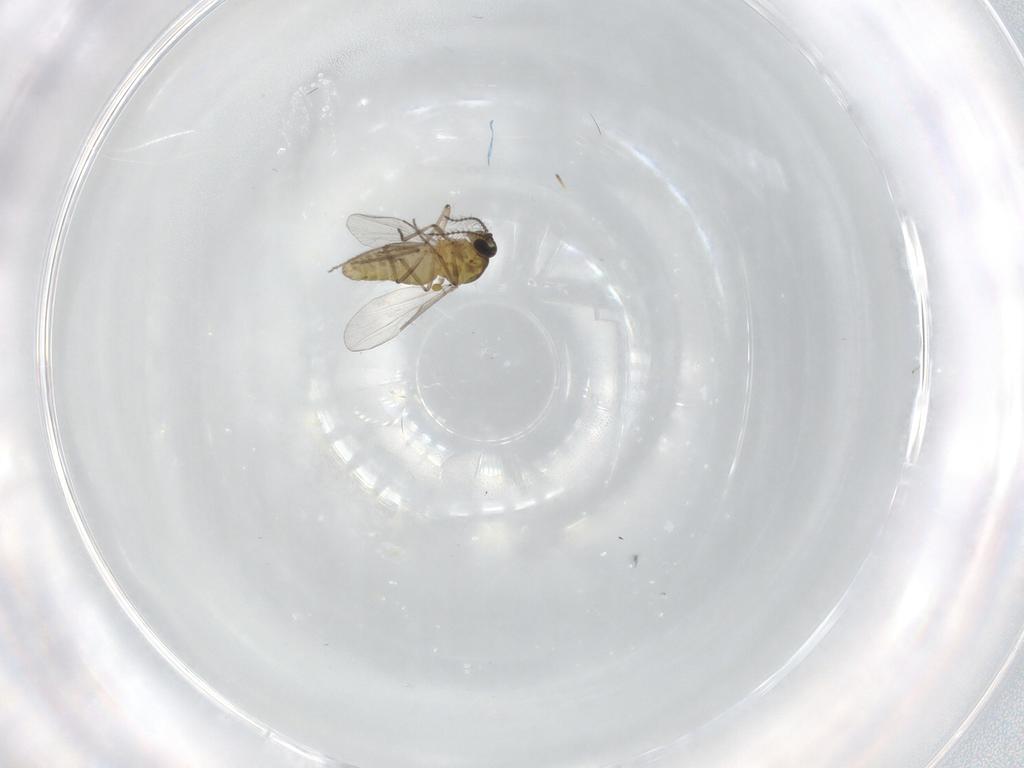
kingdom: Animalia
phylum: Arthropoda
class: Insecta
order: Diptera
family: Ceratopogonidae
